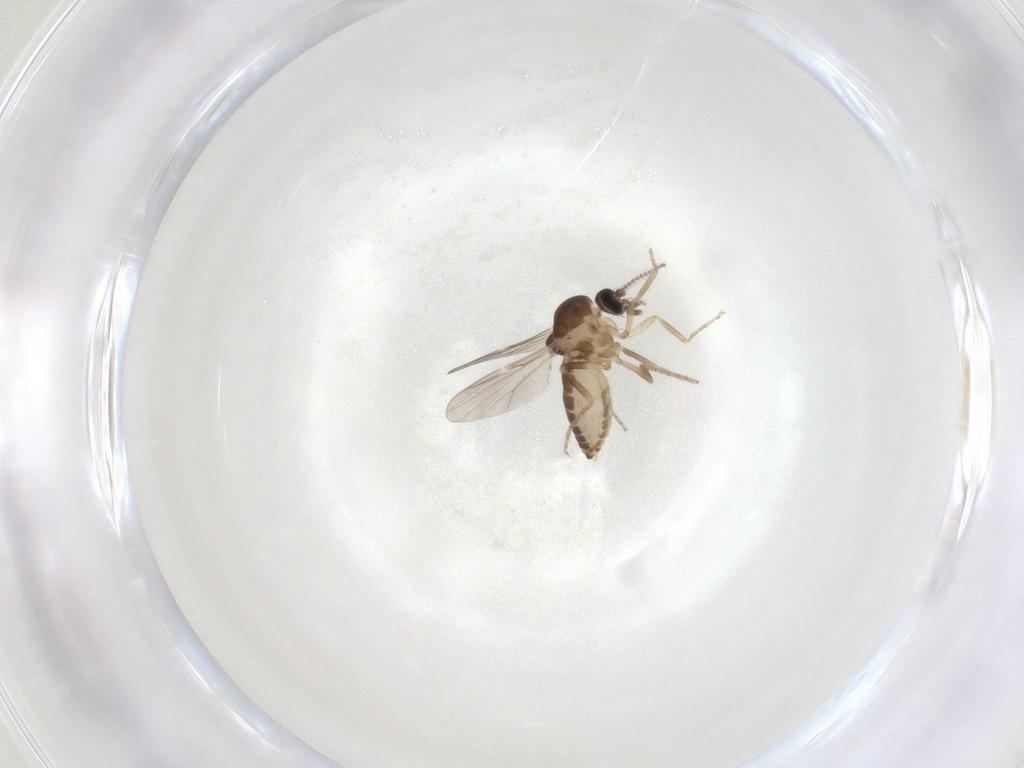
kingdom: Animalia
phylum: Arthropoda
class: Insecta
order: Diptera
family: Ceratopogonidae
